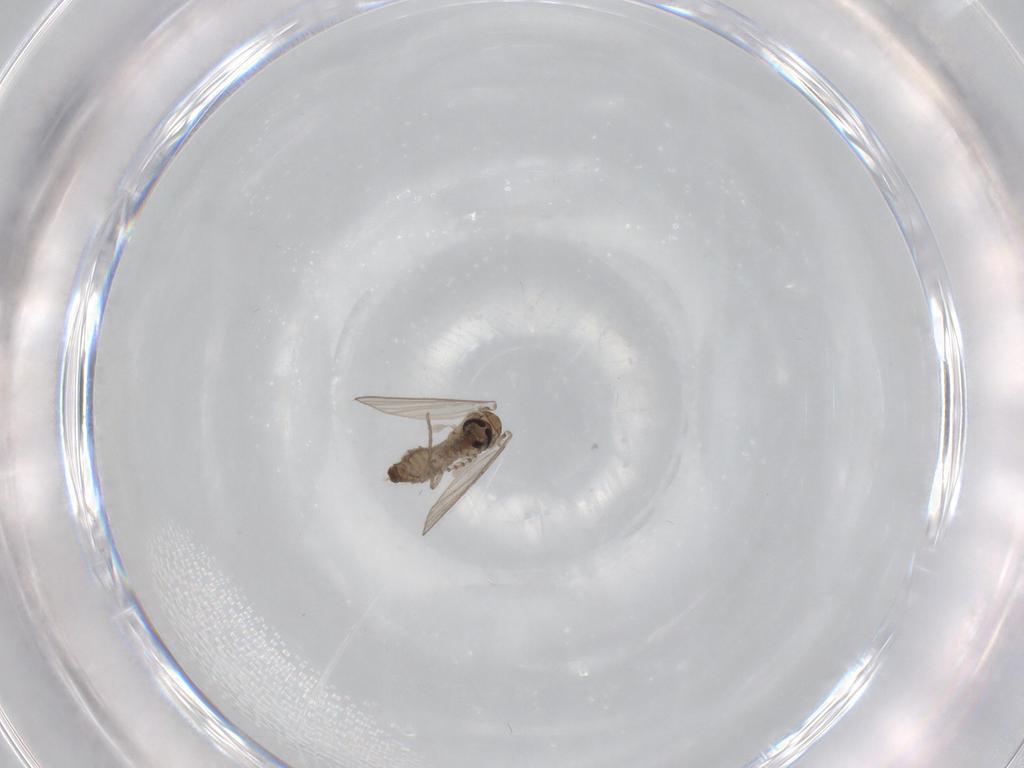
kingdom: Animalia
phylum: Arthropoda
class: Insecta
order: Diptera
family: Psychodidae
